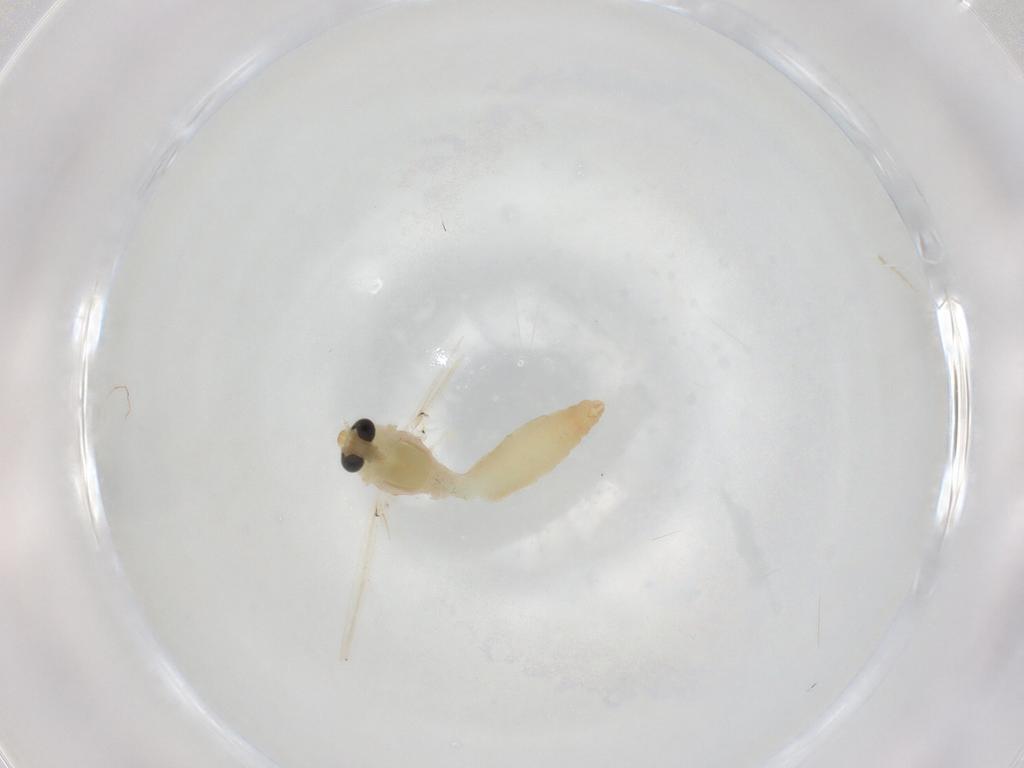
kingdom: Animalia
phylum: Arthropoda
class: Insecta
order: Diptera
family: Chironomidae
